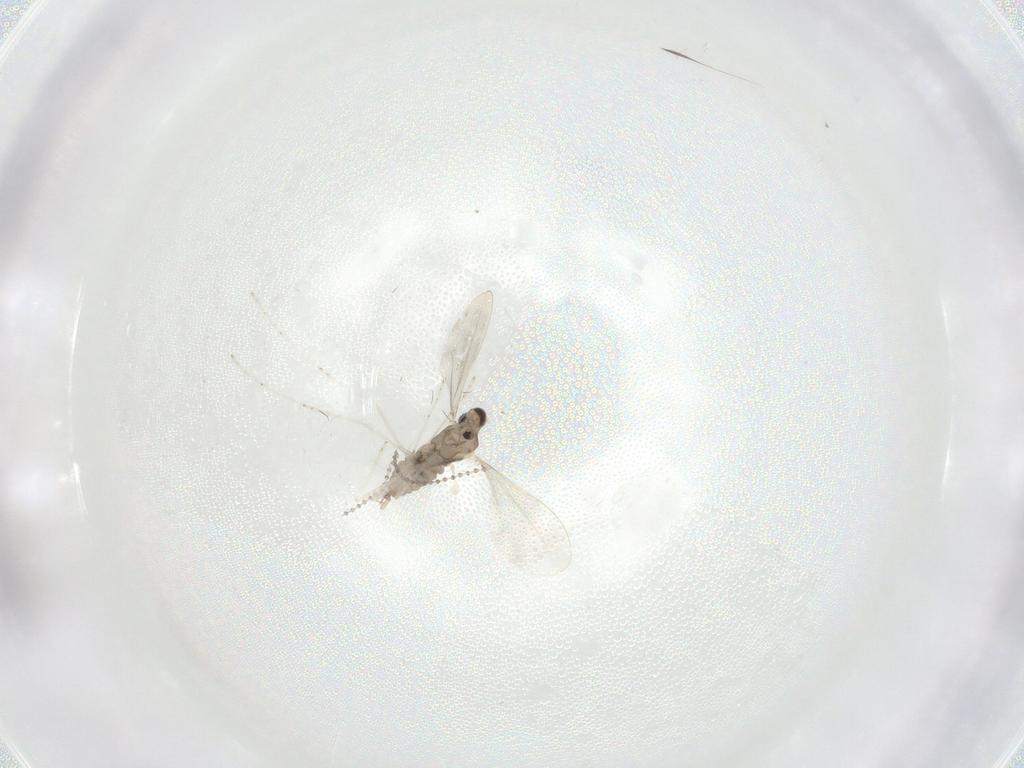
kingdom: Animalia
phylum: Arthropoda
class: Insecta
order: Diptera
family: Cecidomyiidae
